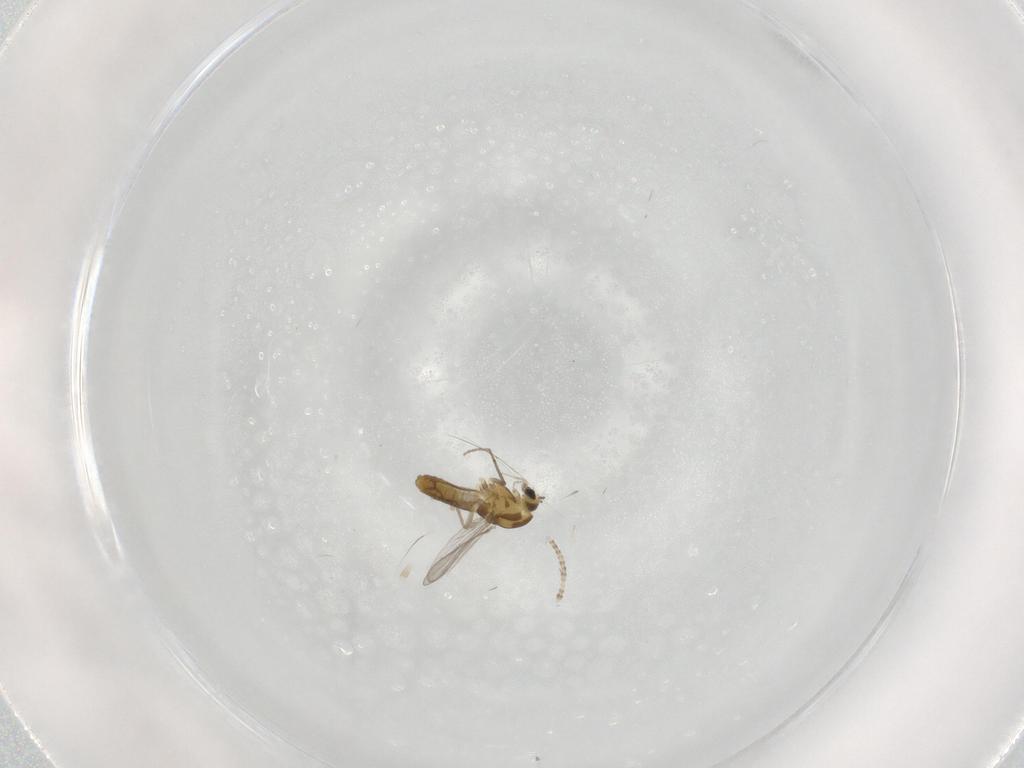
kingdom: Animalia
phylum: Arthropoda
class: Insecta
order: Diptera
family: Chironomidae
